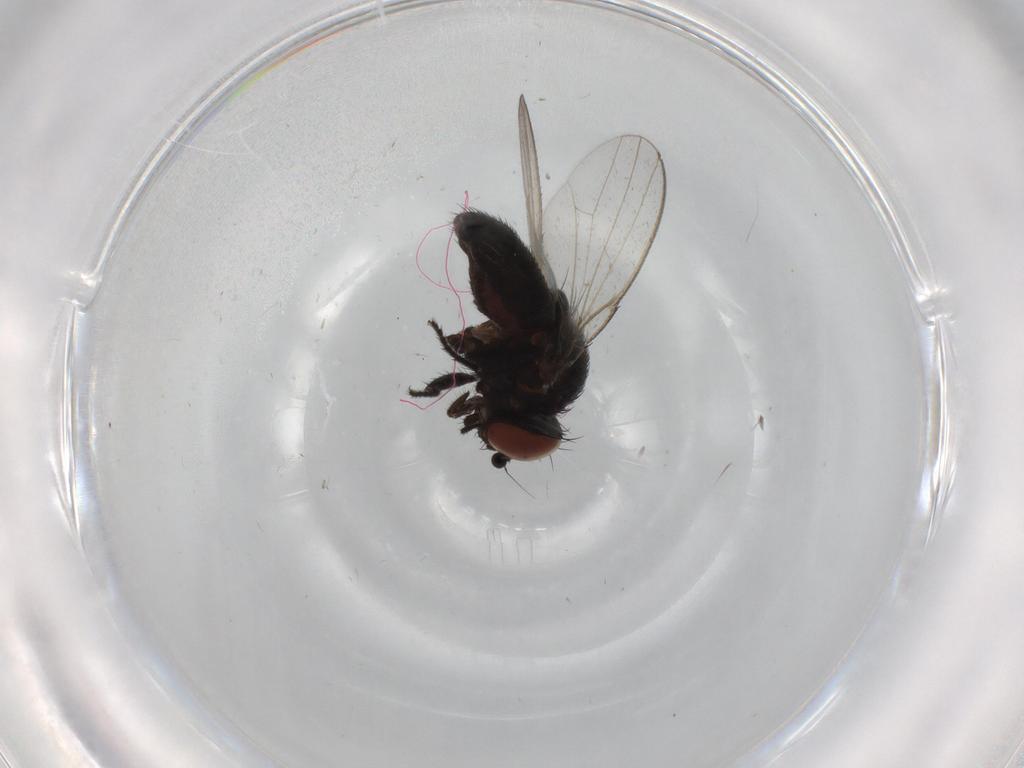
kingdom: Animalia
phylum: Arthropoda
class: Insecta
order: Diptera
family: Milichiidae
